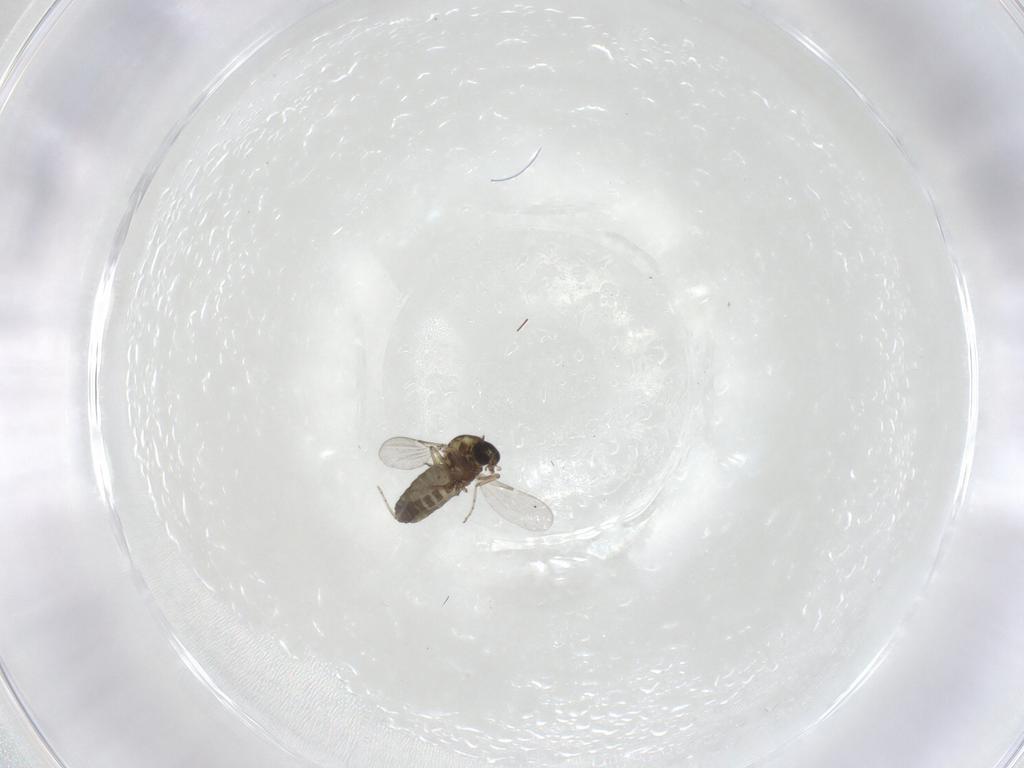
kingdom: Animalia
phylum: Arthropoda
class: Insecta
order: Diptera
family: Ceratopogonidae
